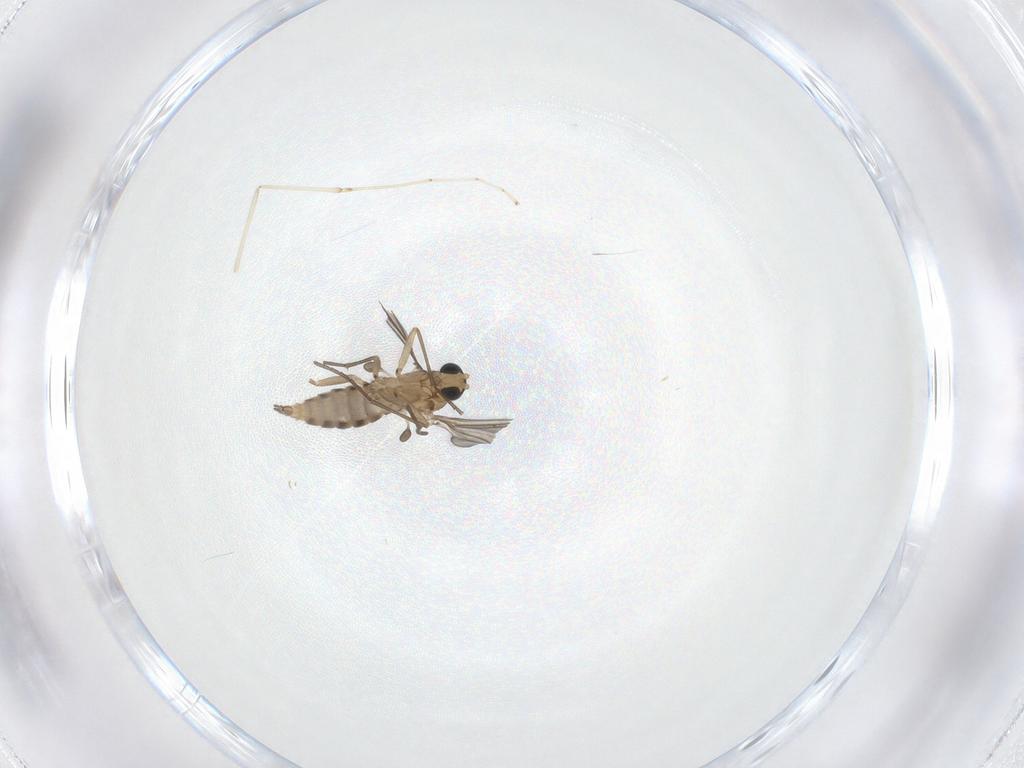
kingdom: Animalia
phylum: Arthropoda
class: Insecta
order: Diptera
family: Sciaridae
